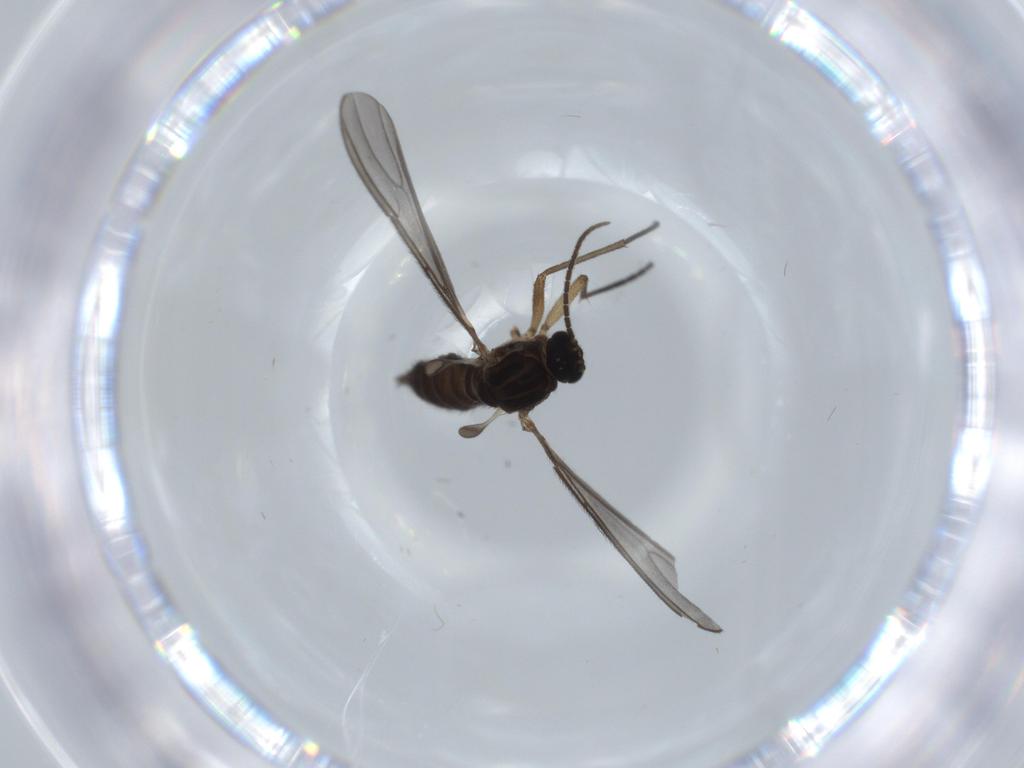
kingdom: Animalia
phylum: Arthropoda
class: Insecta
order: Diptera
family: Sciaridae
